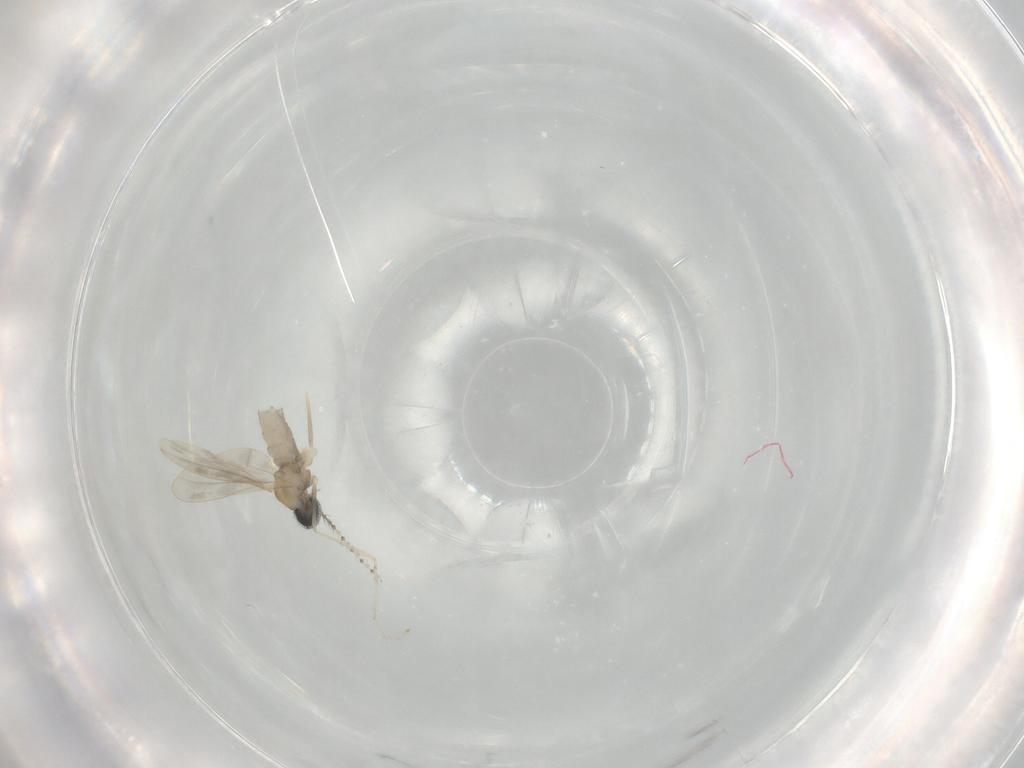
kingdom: Animalia
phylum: Arthropoda
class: Insecta
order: Diptera
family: Cecidomyiidae
